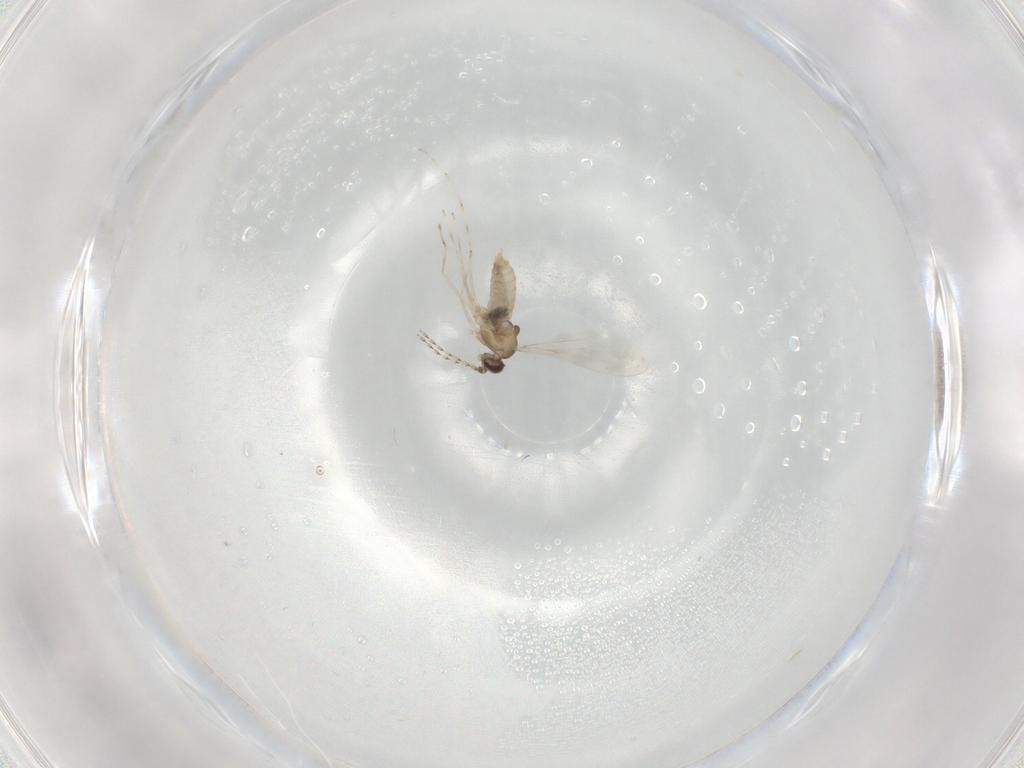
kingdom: Animalia
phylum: Arthropoda
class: Insecta
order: Diptera
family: Cecidomyiidae
